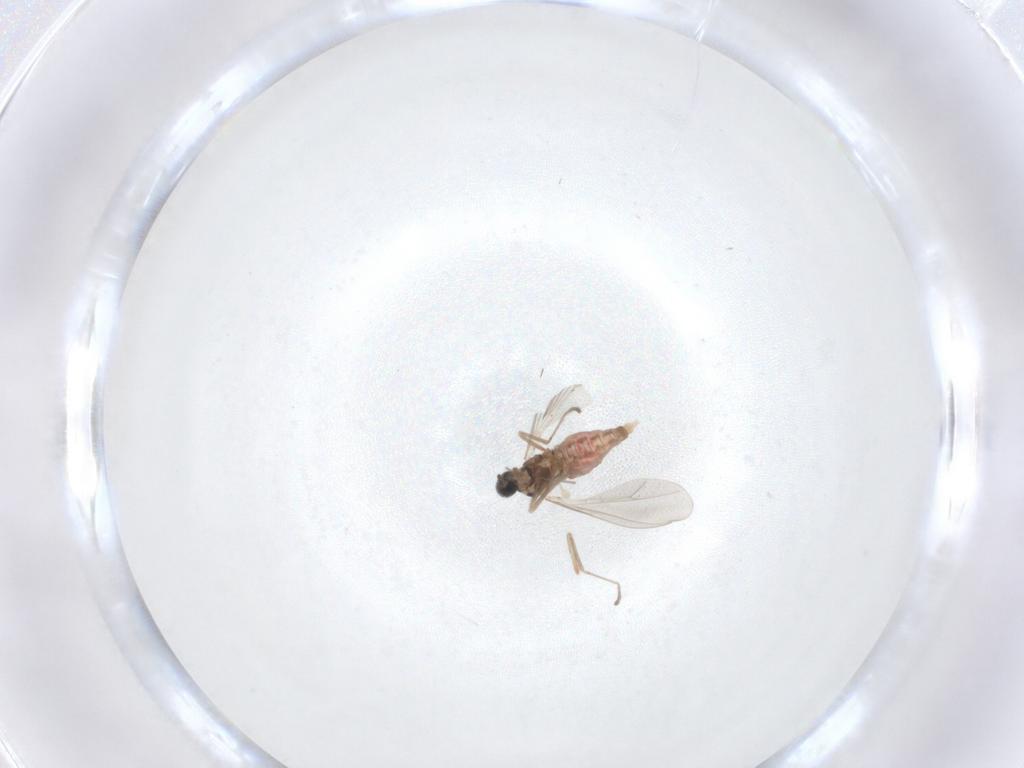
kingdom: Animalia
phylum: Arthropoda
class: Insecta
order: Diptera
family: Cecidomyiidae
